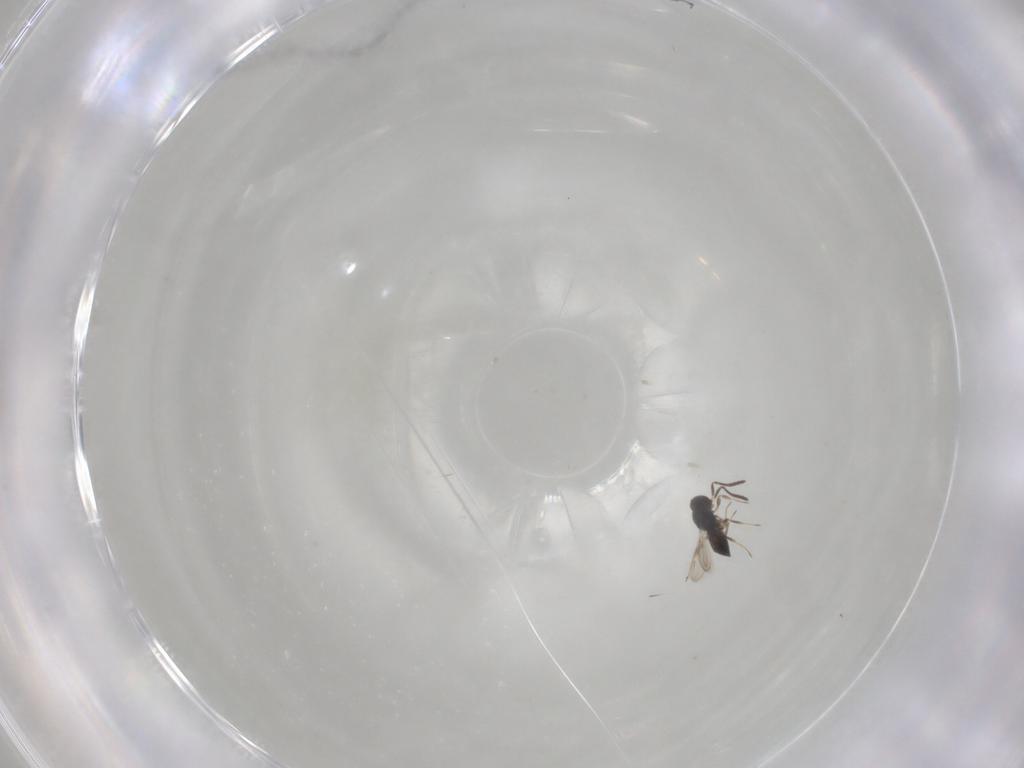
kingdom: Animalia
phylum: Arthropoda
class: Insecta
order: Hymenoptera
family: Scelionidae
